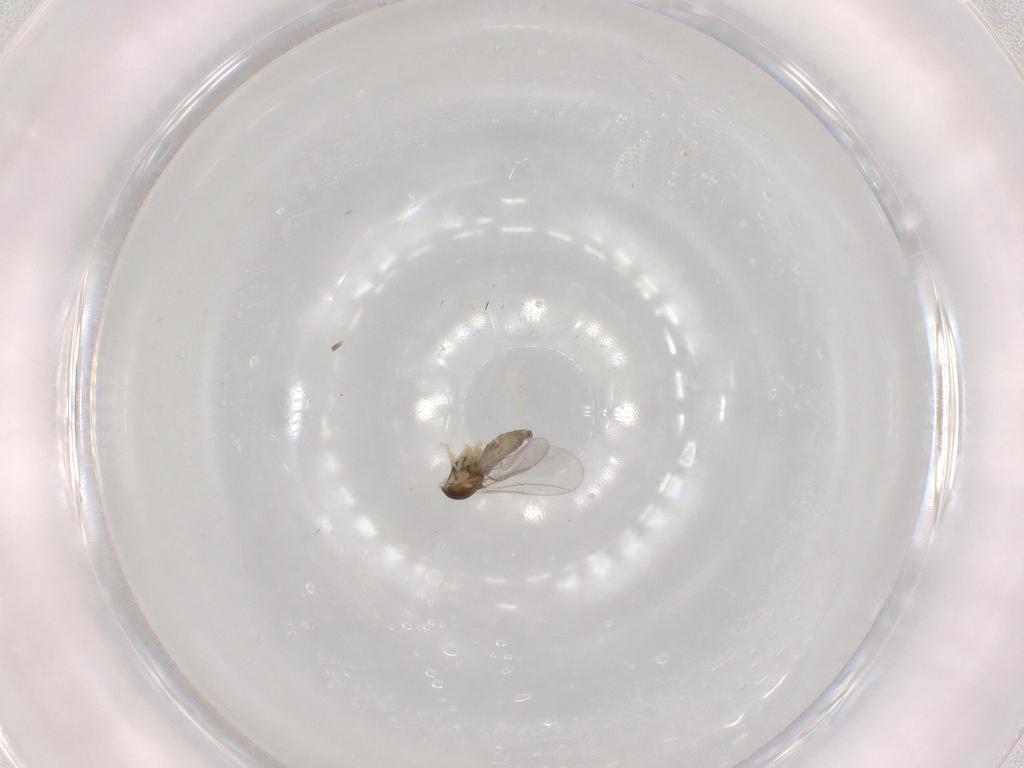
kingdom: Animalia
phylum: Arthropoda
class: Insecta
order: Diptera
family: Cecidomyiidae
